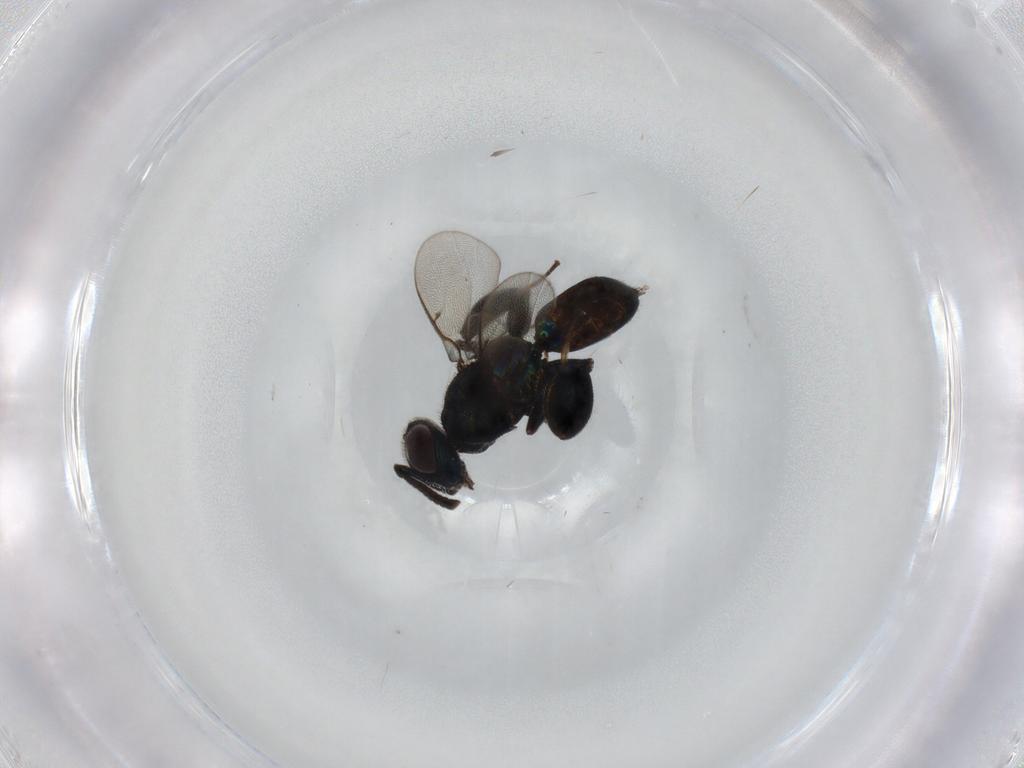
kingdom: Animalia
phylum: Arthropoda
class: Insecta
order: Hymenoptera
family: Pteromalidae
